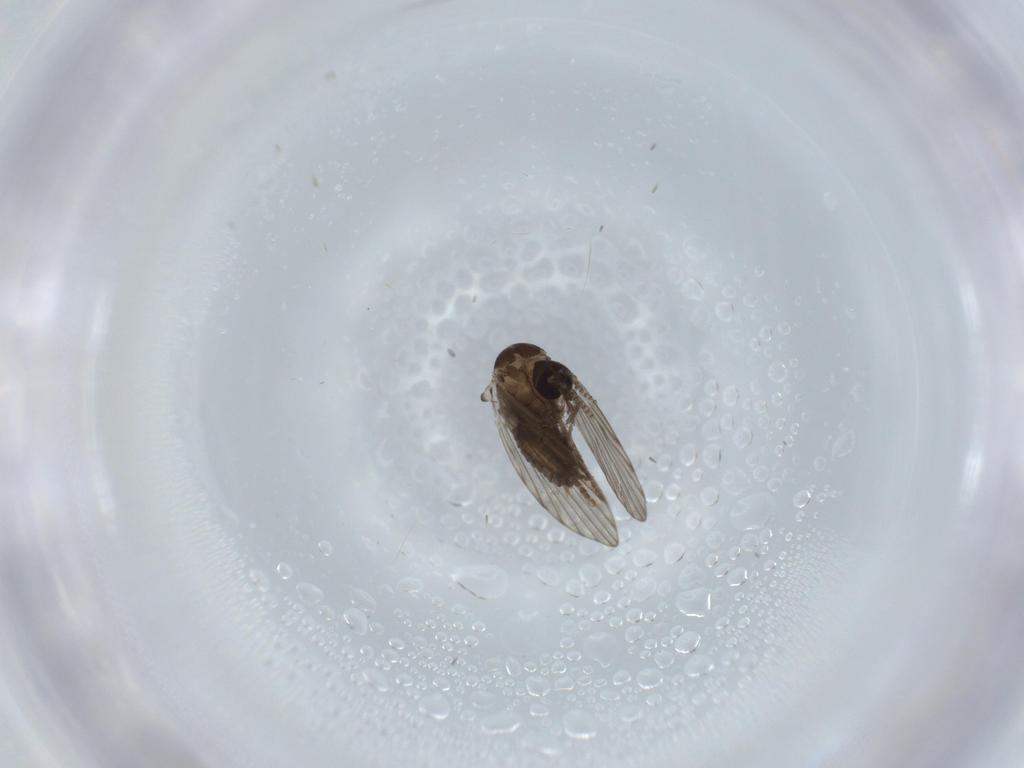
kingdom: Animalia
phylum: Arthropoda
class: Insecta
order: Diptera
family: Psychodidae
